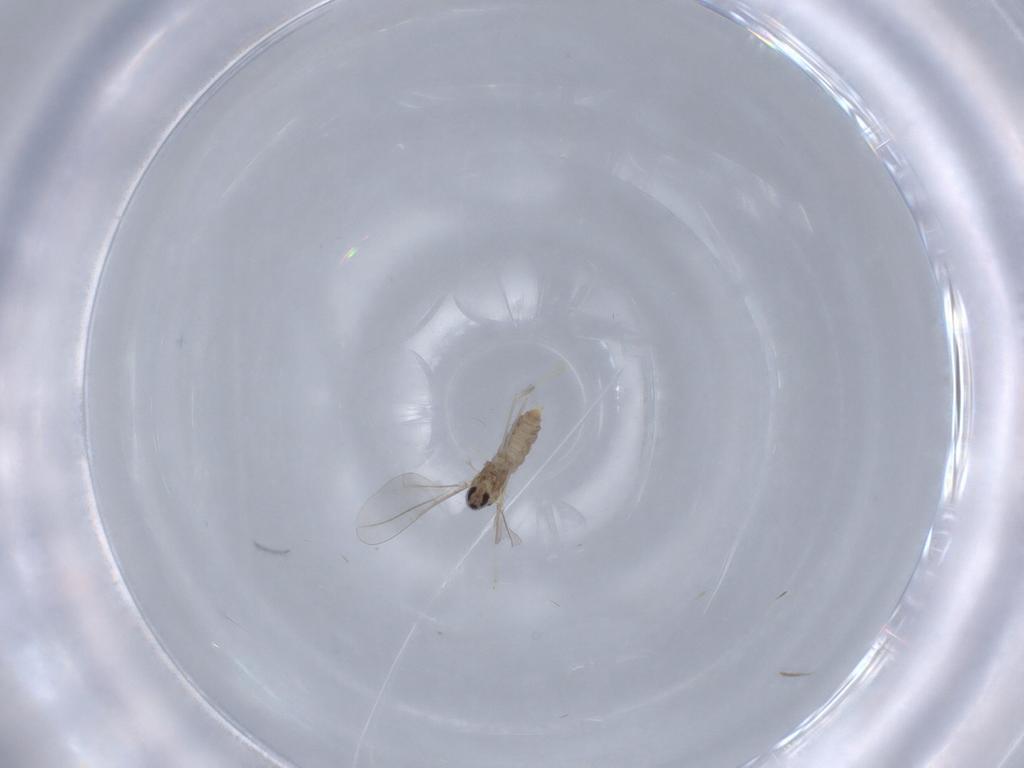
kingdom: Animalia
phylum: Arthropoda
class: Insecta
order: Diptera
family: Cecidomyiidae
